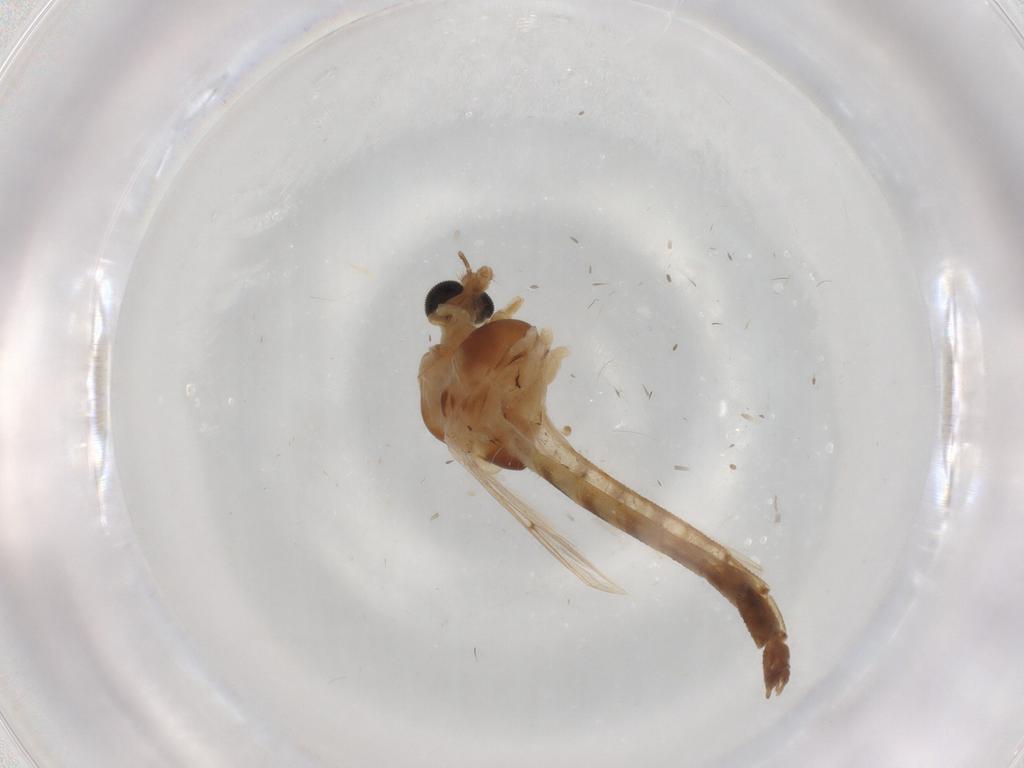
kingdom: Animalia
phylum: Arthropoda
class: Insecta
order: Diptera
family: Chironomidae
